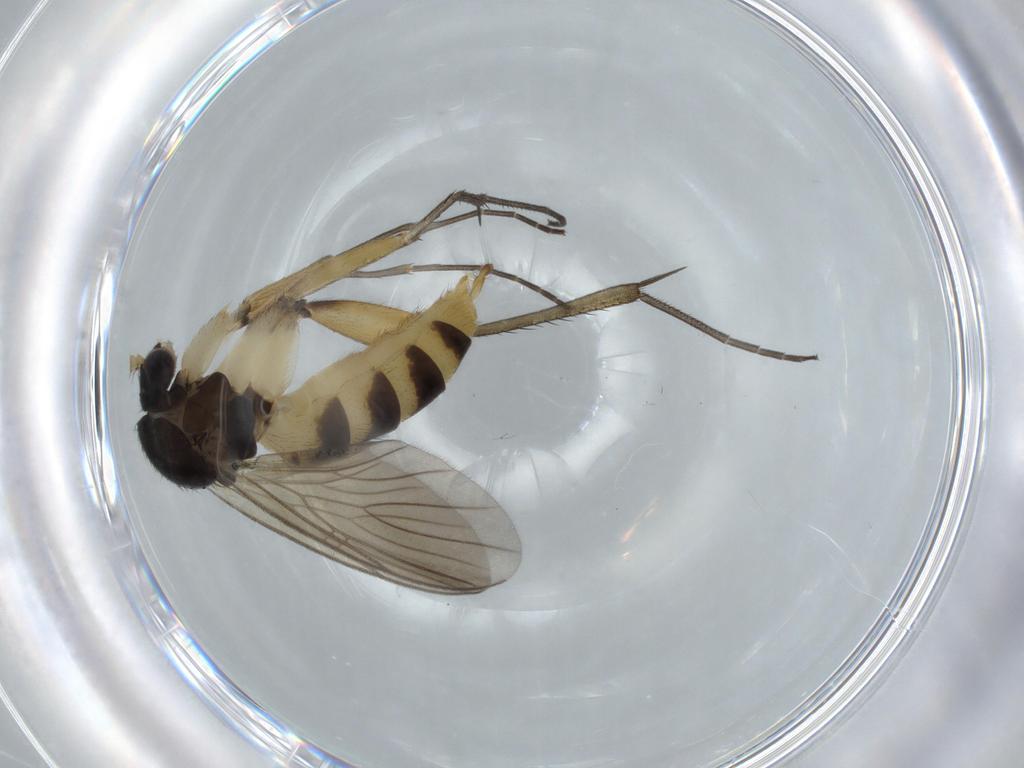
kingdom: Animalia
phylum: Arthropoda
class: Insecta
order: Diptera
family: Mycetophilidae
